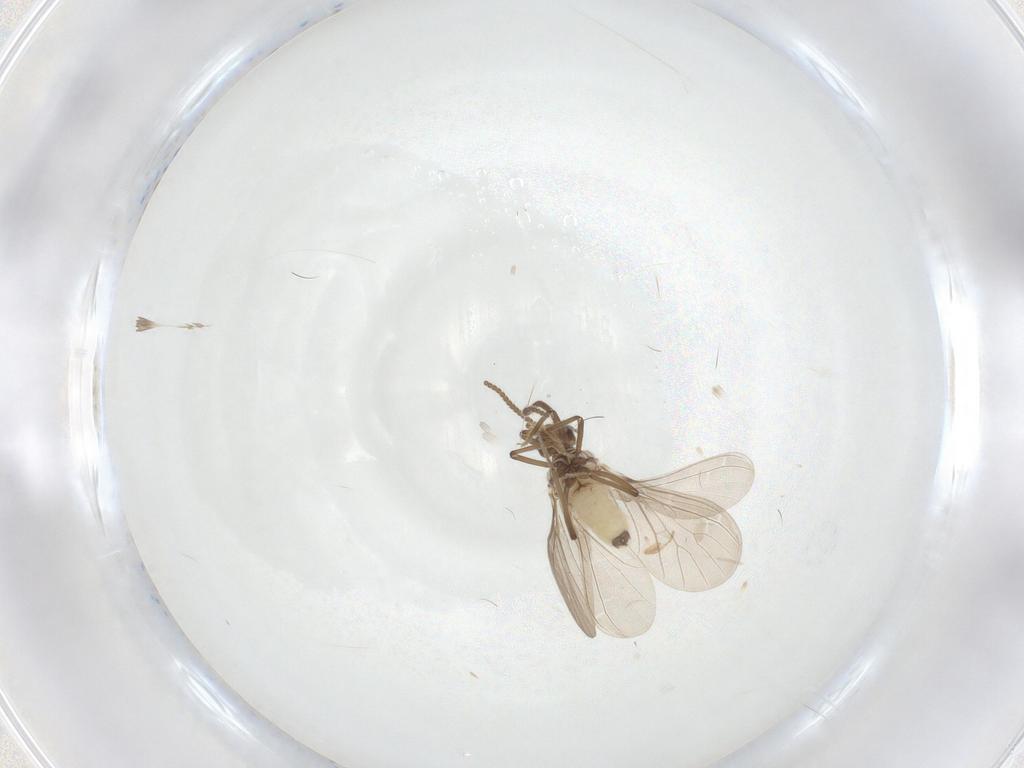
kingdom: Animalia
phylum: Arthropoda
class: Insecta
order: Neuroptera
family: Coniopterygidae
